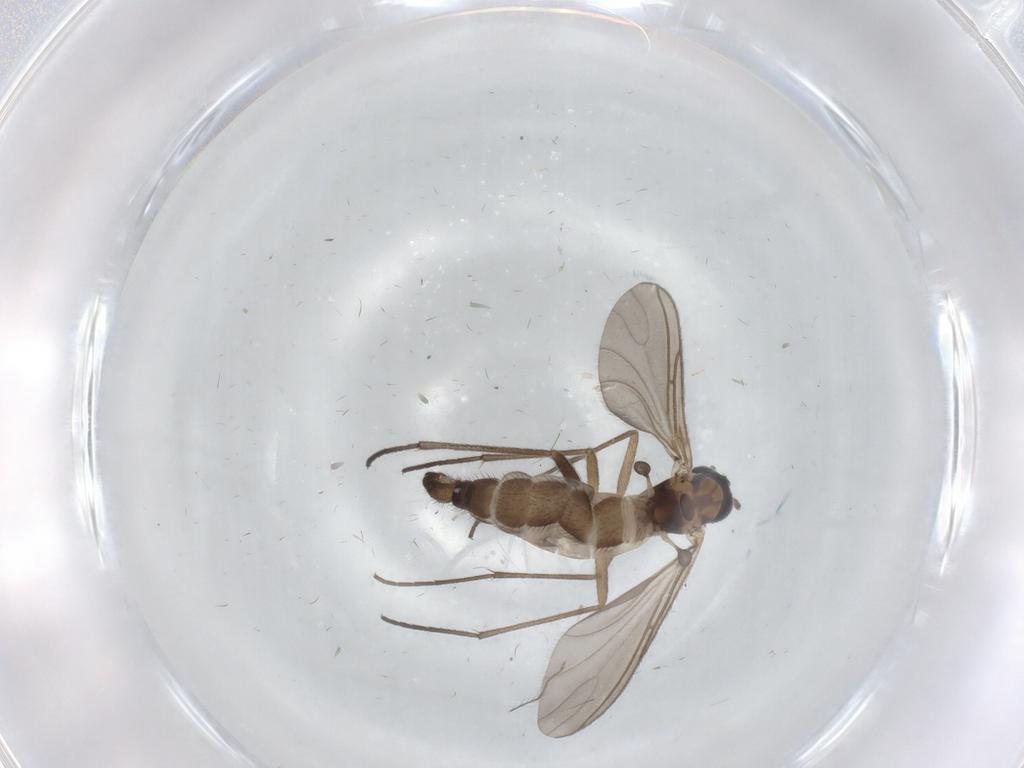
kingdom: Animalia
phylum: Arthropoda
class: Insecta
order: Diptera
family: Sciaridae
